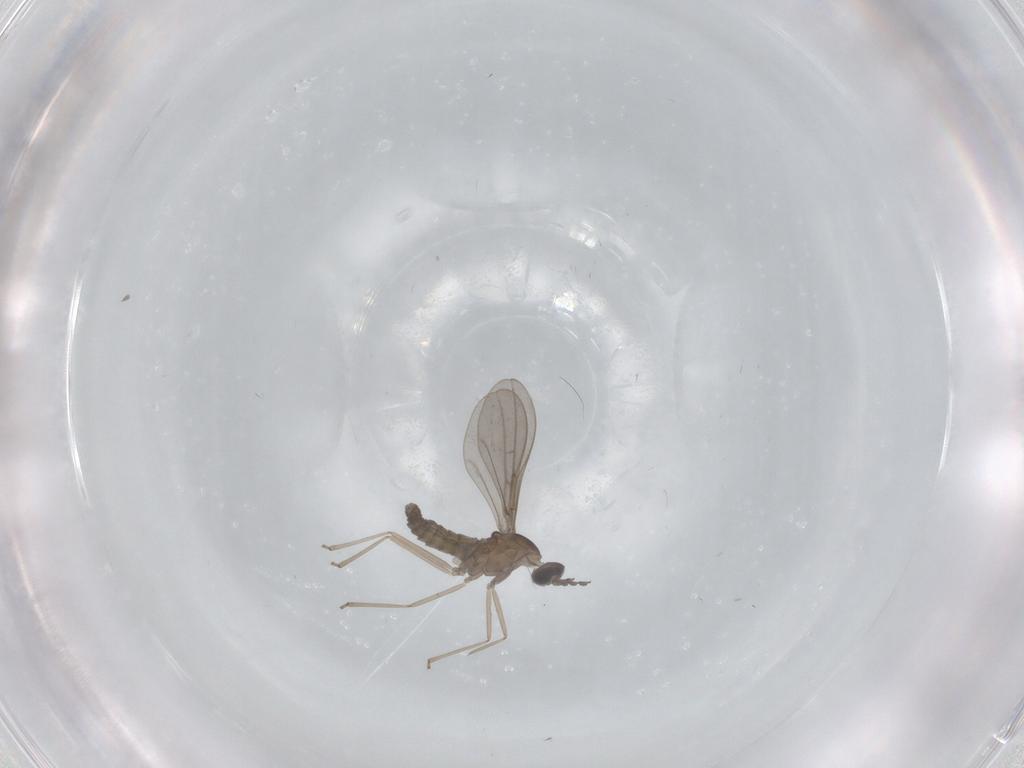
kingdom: Animalia
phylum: Arthropoda
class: Insecta
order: Diptera
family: Cecidomyiidae
